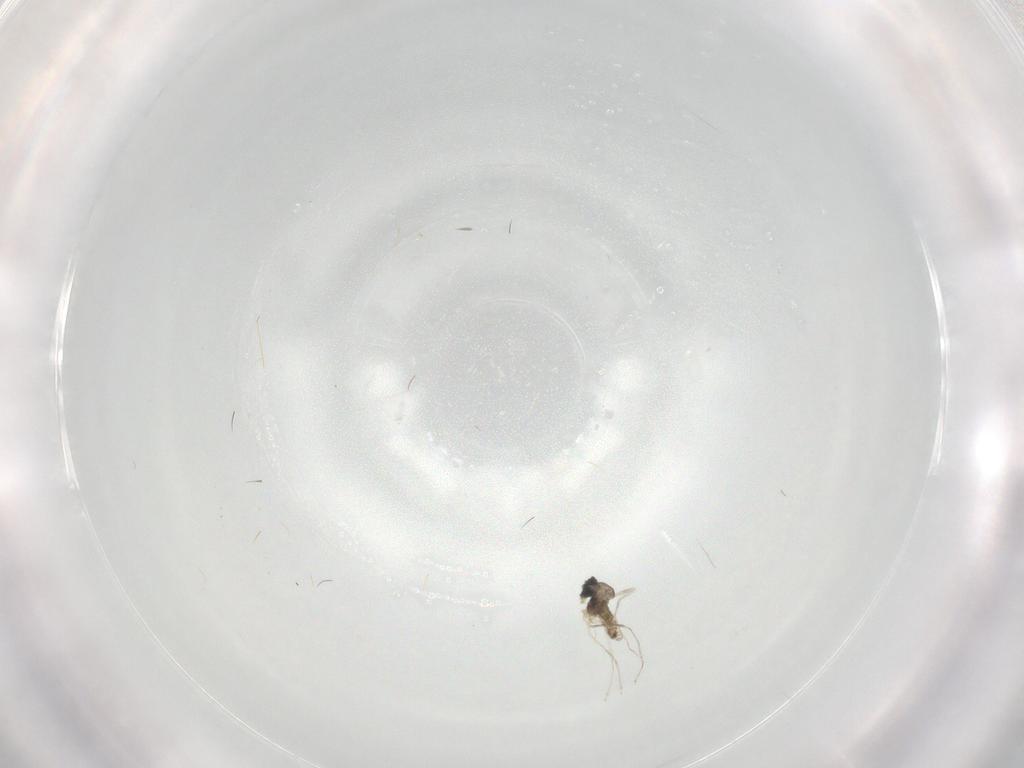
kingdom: Animalia
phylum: Arthropoda
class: Insecta
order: Diptera
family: Cecidomyiidae
